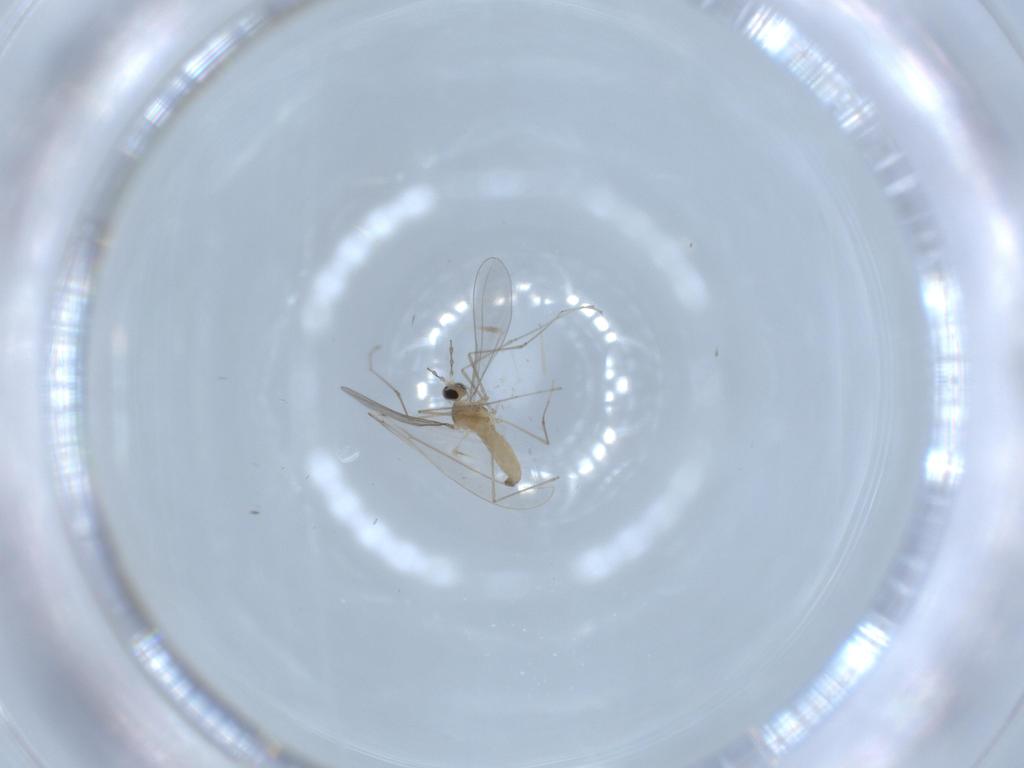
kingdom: Animalia
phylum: Arthropoda
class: Insecta
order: Diptera
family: Cecidomyiidae
